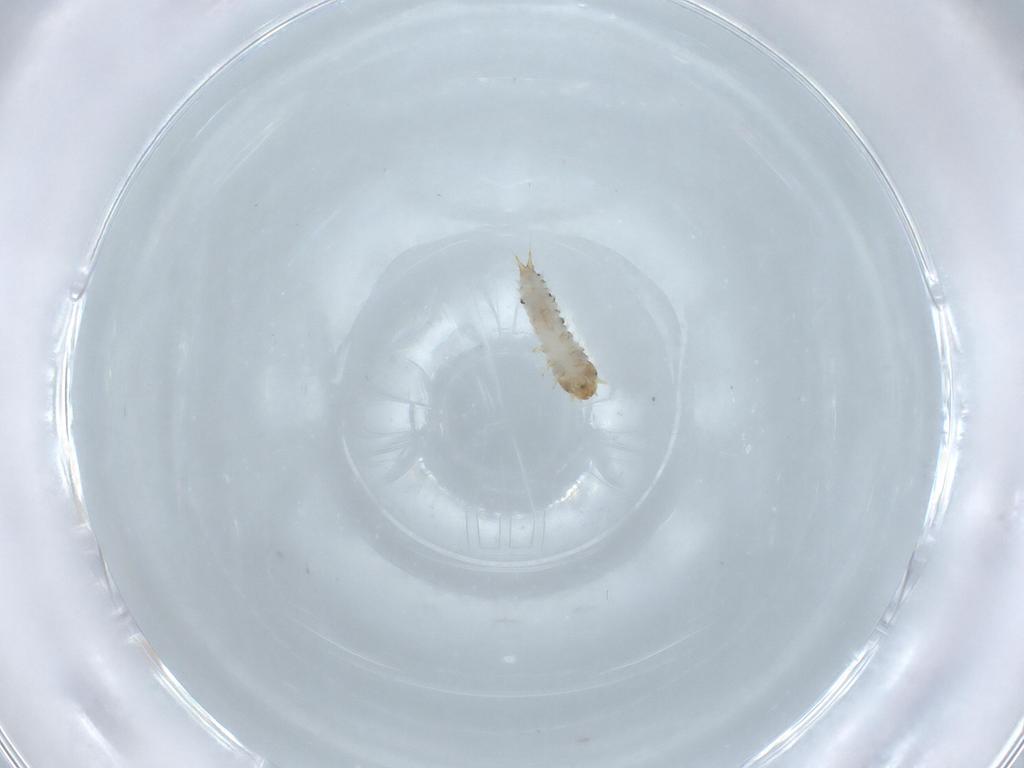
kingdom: Animalia
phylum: Arthropoda
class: Insecta
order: Coleoptera
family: Nitidulidae
